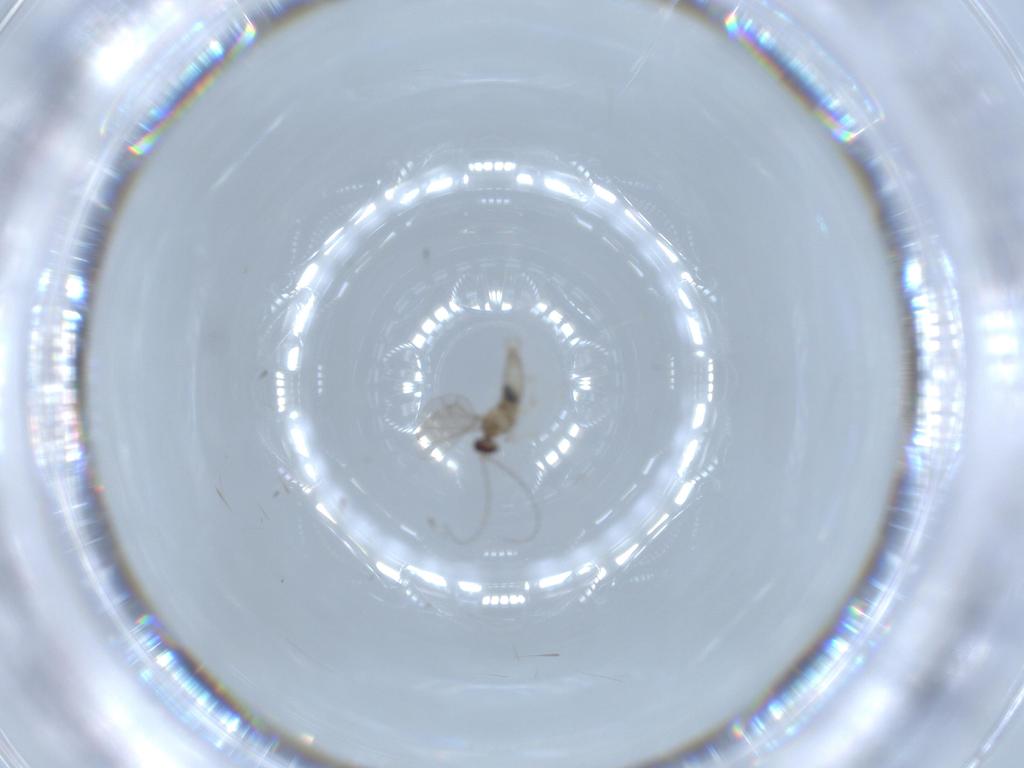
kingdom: Animalia
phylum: Arthropoda
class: Insecta
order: Diptera
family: Cecidomyiidae
